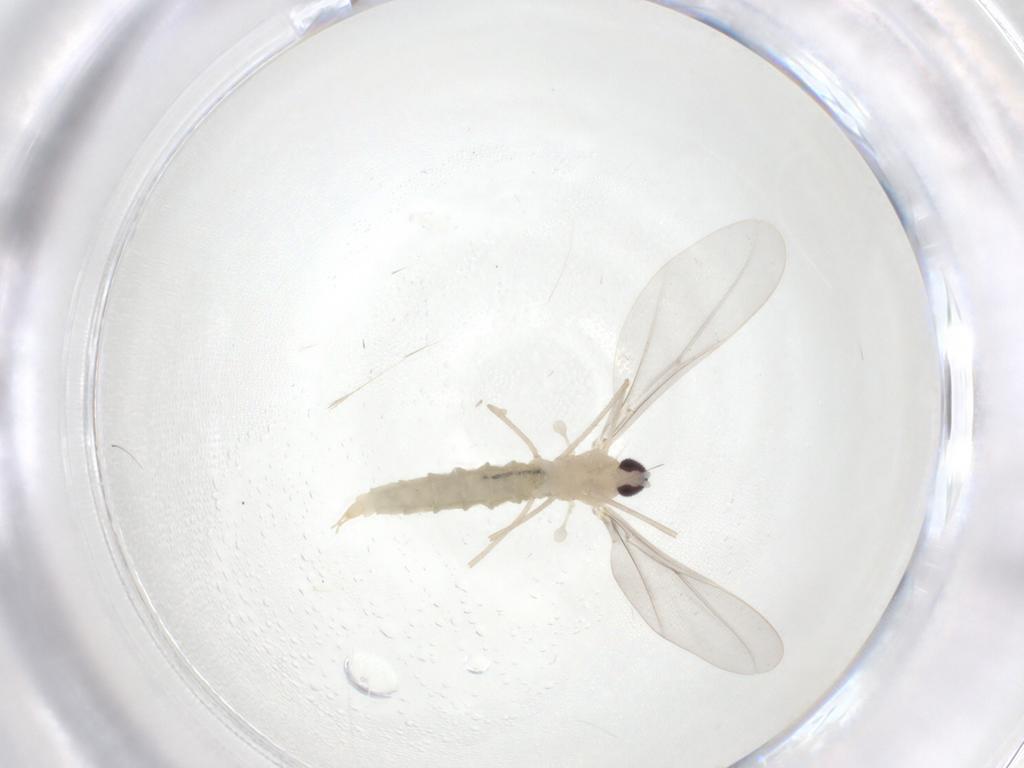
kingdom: Animalia
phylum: Arthropoda
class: Insecta
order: Diptera
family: Cecidomyiidae
